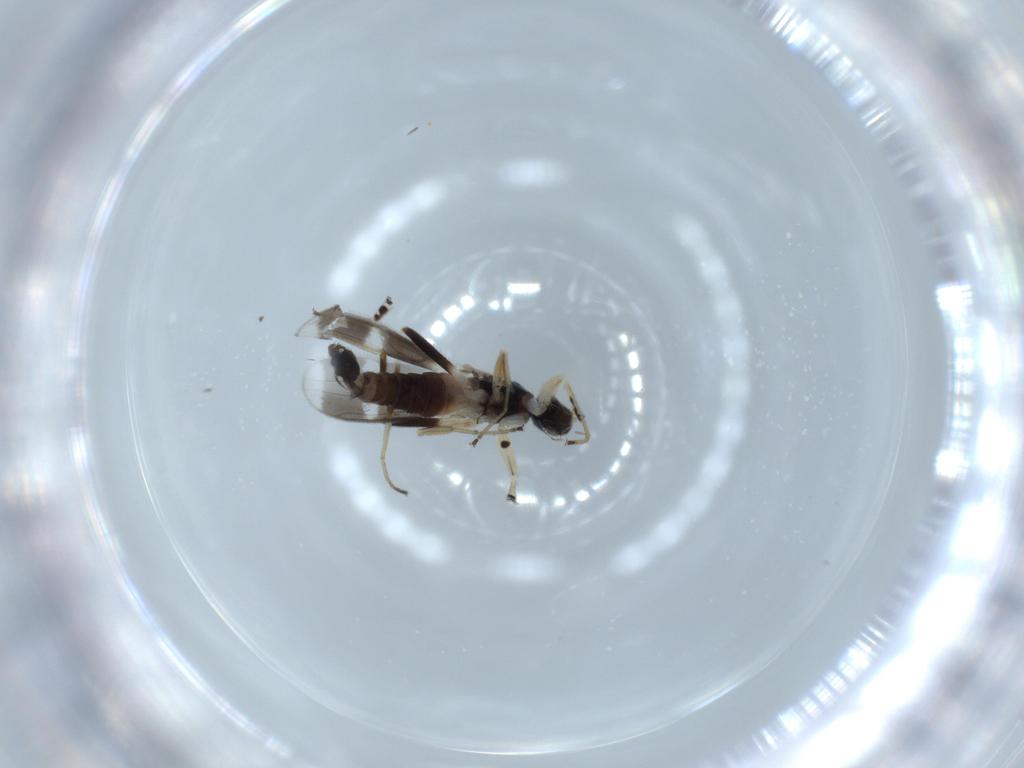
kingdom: Animalia
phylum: Arthropoda
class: Insecta
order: Diptera
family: Hybotidae
